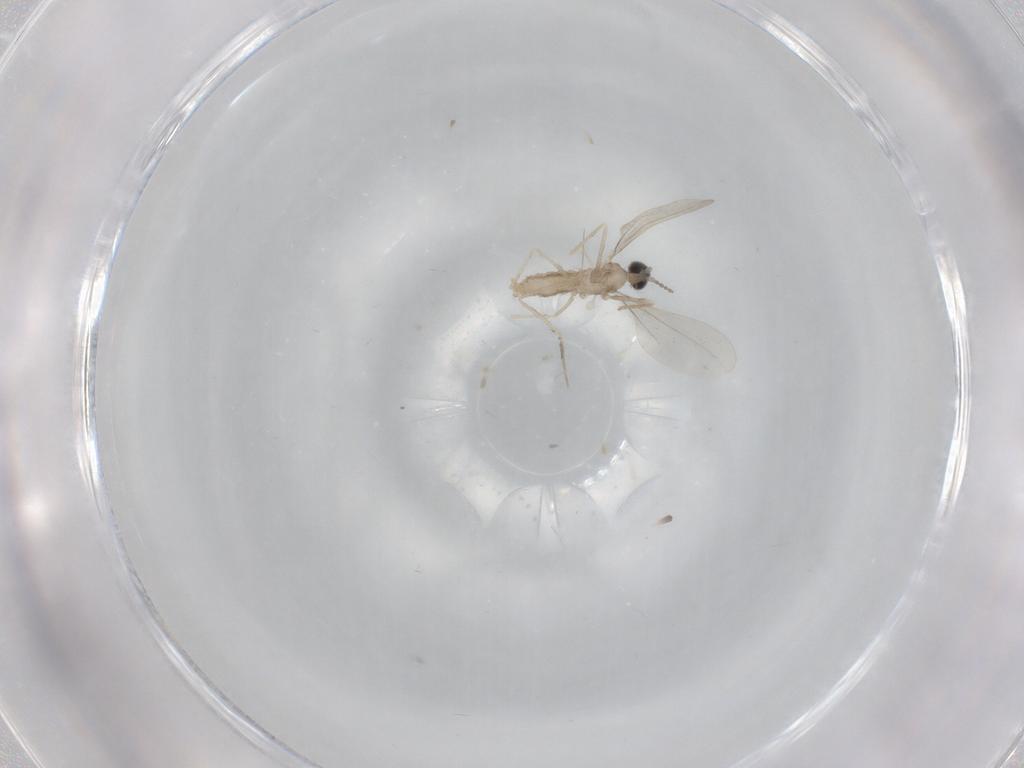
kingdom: Animalia
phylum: Arthropoda
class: Insecta
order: Diptera
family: Cecidomyiidae
